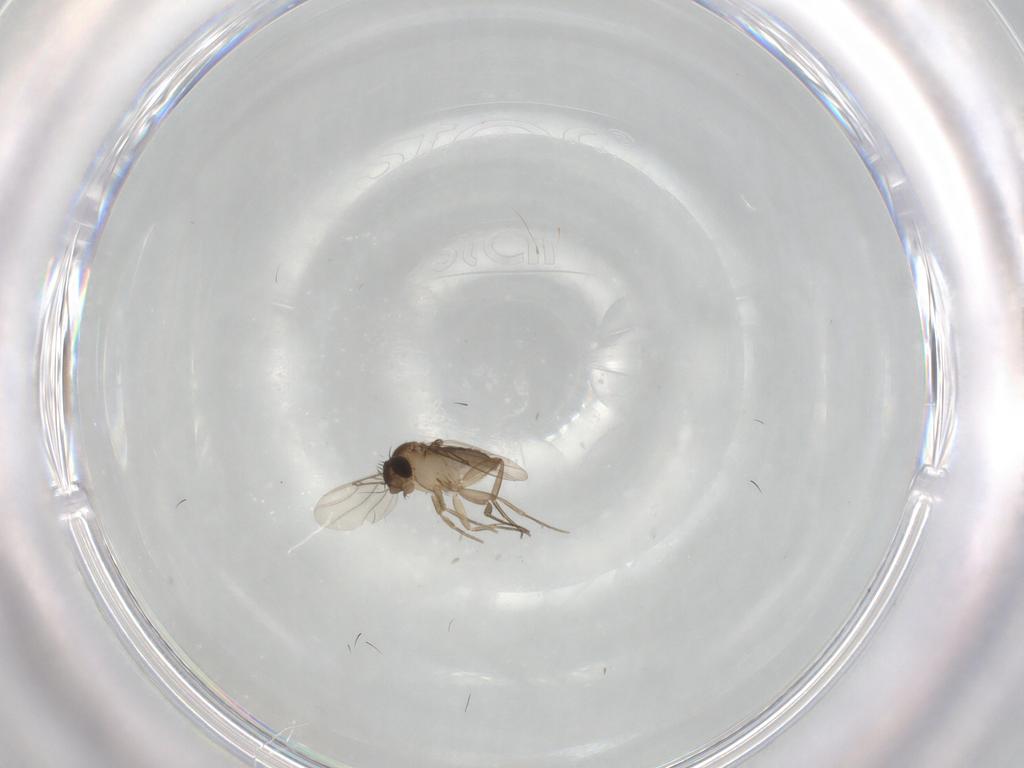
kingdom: Animalia
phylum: Arthropoda
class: Insecta
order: Diptera
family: Phoridae
